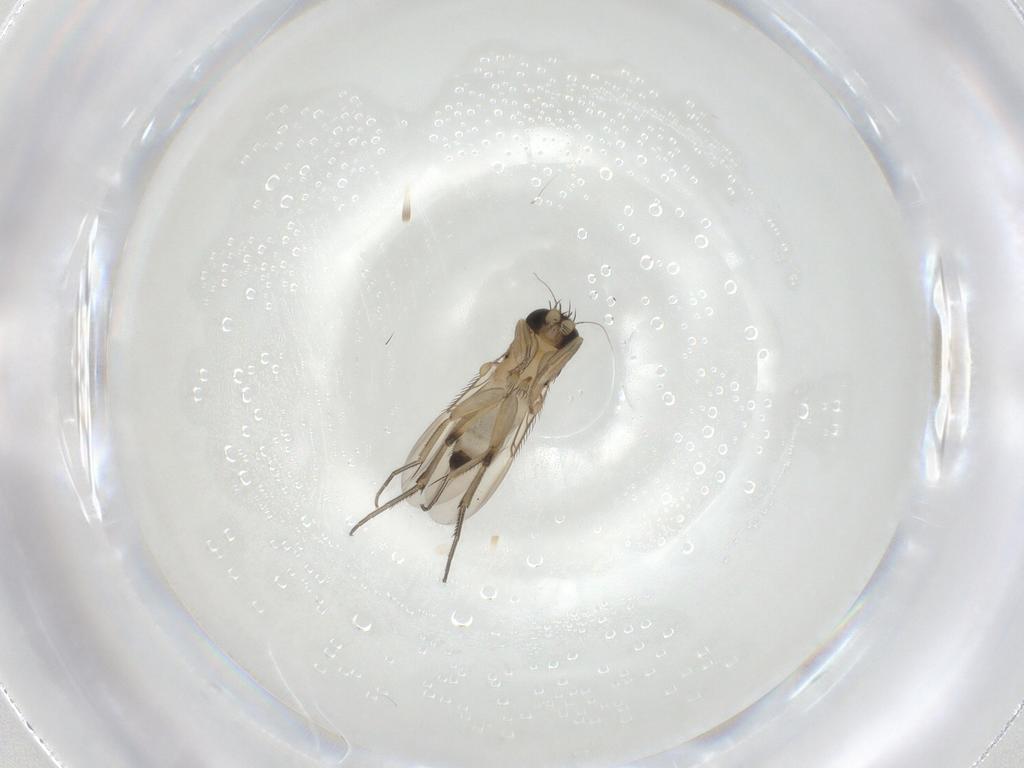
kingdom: Animalia
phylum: Arthropoda
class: Insecta
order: Diptera
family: Phoridae
